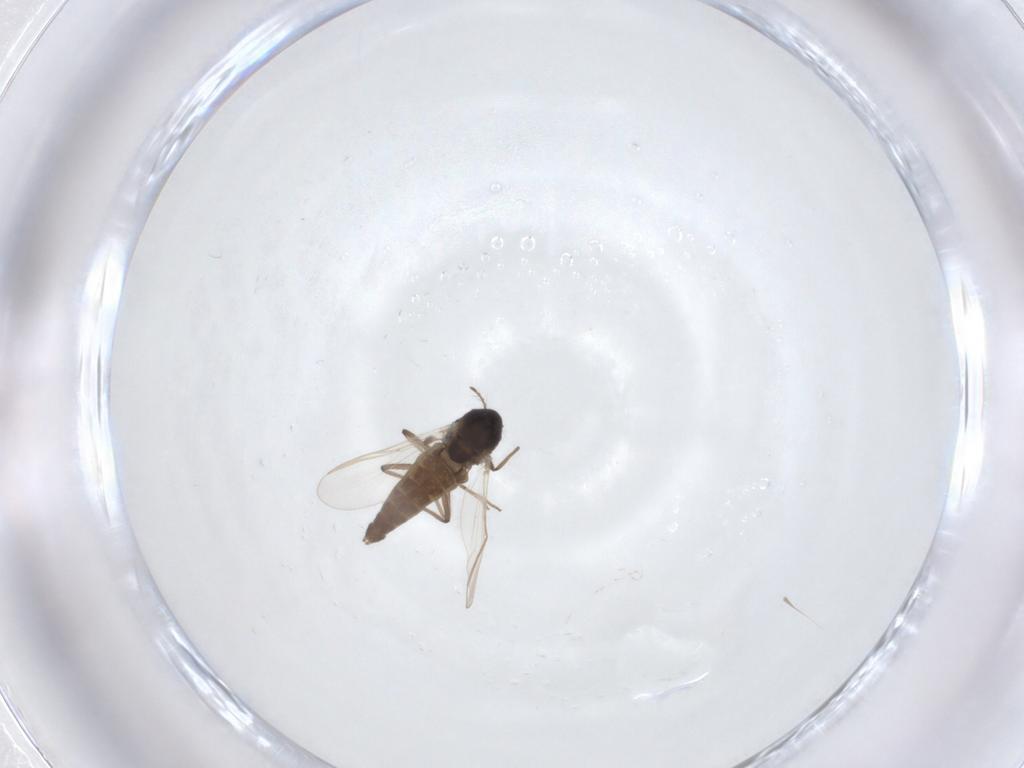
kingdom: Animalia
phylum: Arthropoda
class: Insecta
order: Diptera
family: Chironomidae
